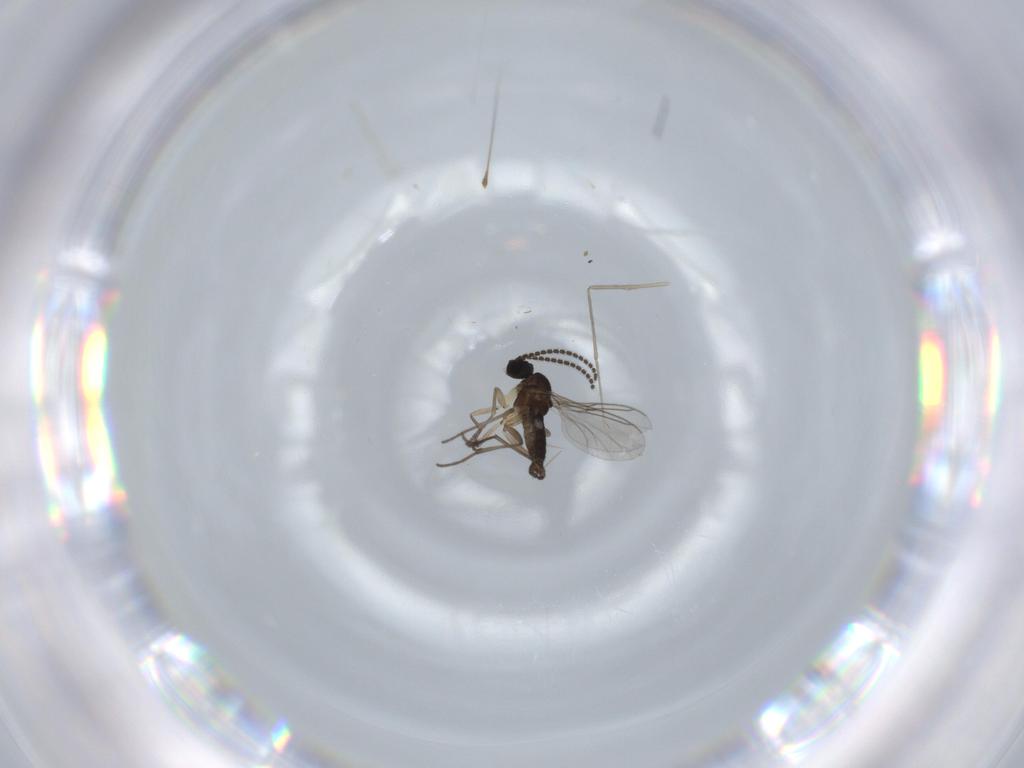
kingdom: Animalia
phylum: Arthropoda
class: Insecta
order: Diptera
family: Sciaridae
